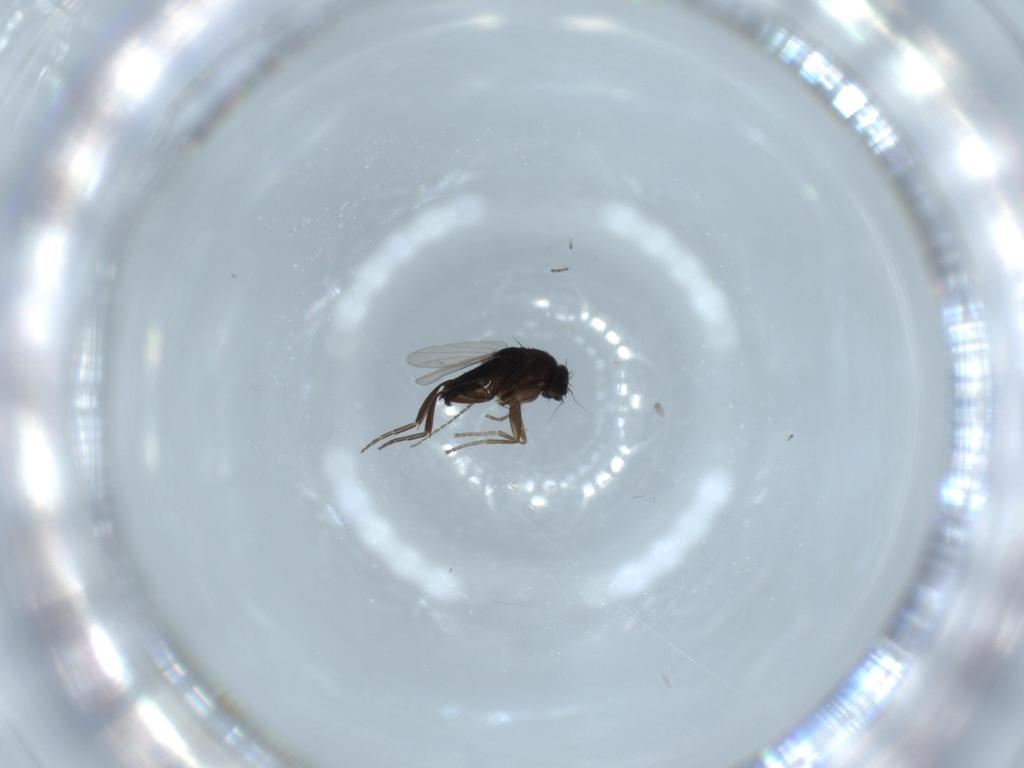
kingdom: Animalia
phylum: Arthropoda
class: Insecta
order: Diptera
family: Phoridae
